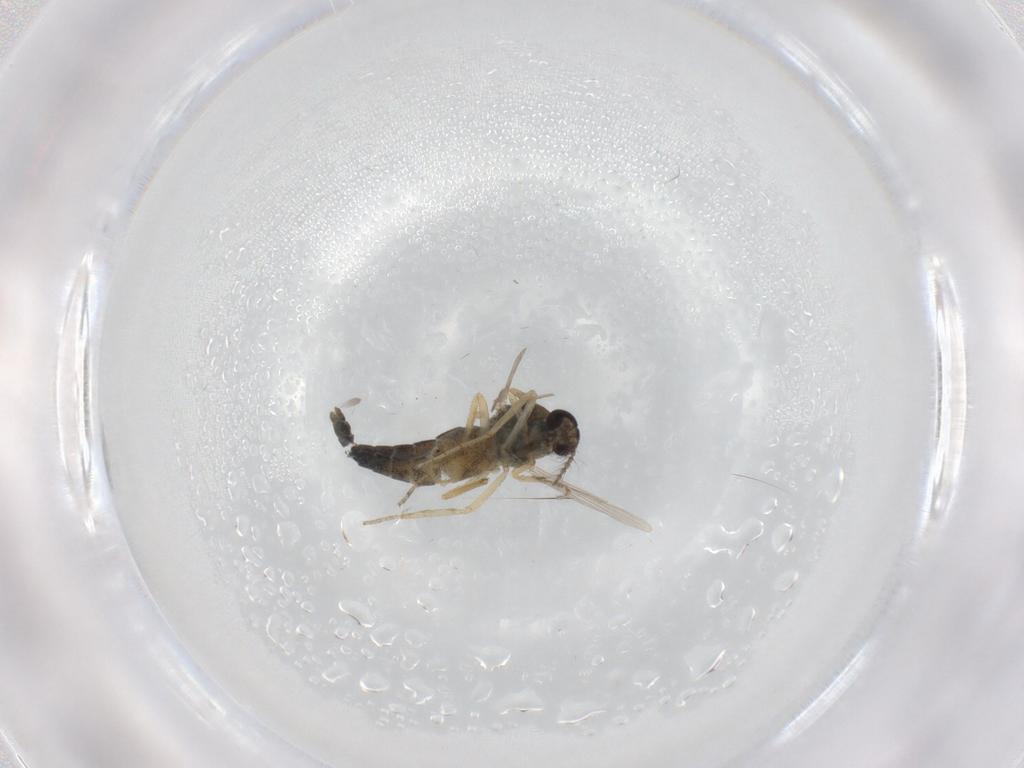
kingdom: Animalia
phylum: Arthropoda
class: Insecta
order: Diptera
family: Ceratopogonidae
